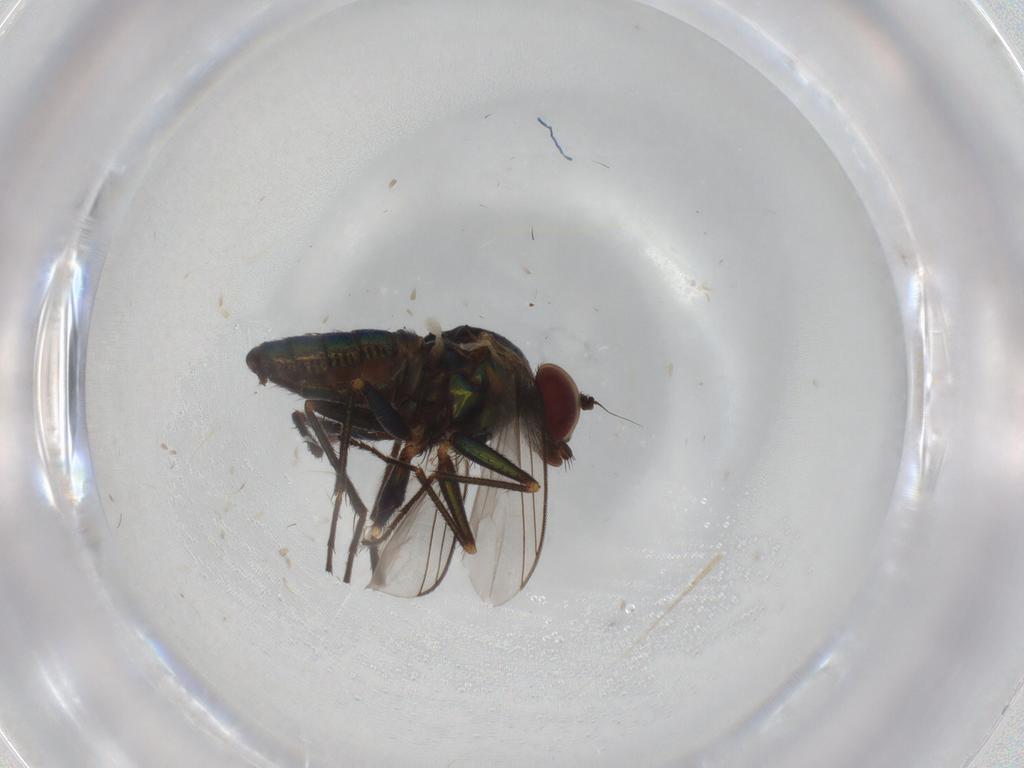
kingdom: Animalia
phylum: Arthropoda
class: Insecta
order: Diptera
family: Dolichopodidae
